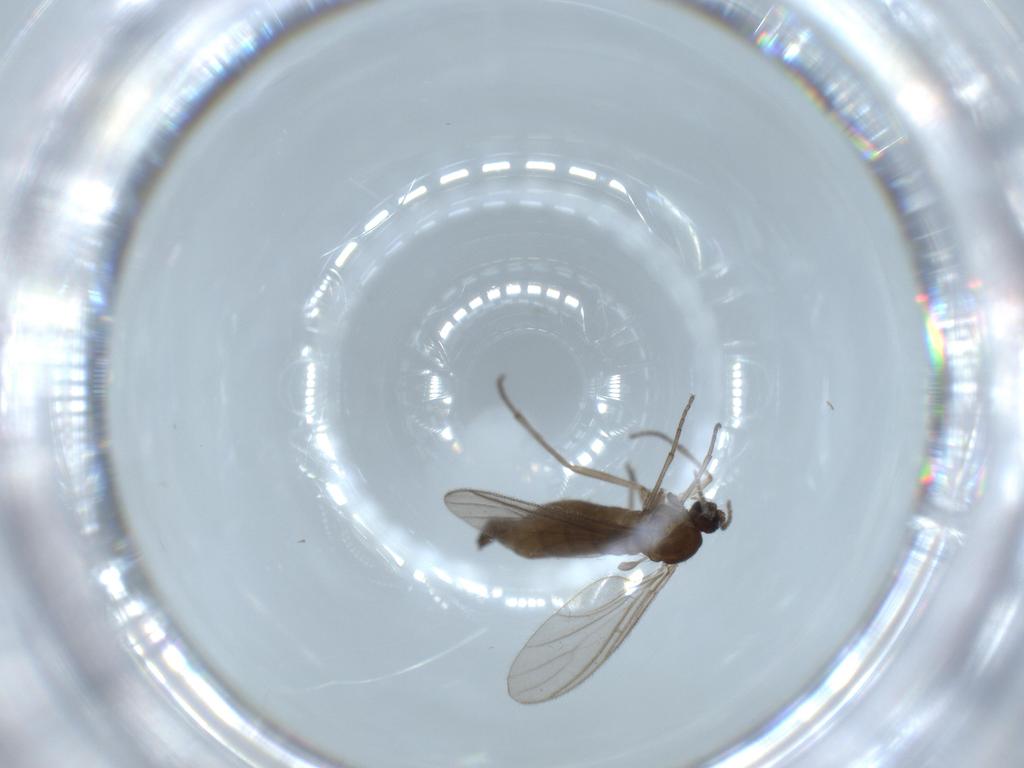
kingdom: Animalia
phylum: Arthropoda
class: Insecta
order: Diptera
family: Sciaridae
